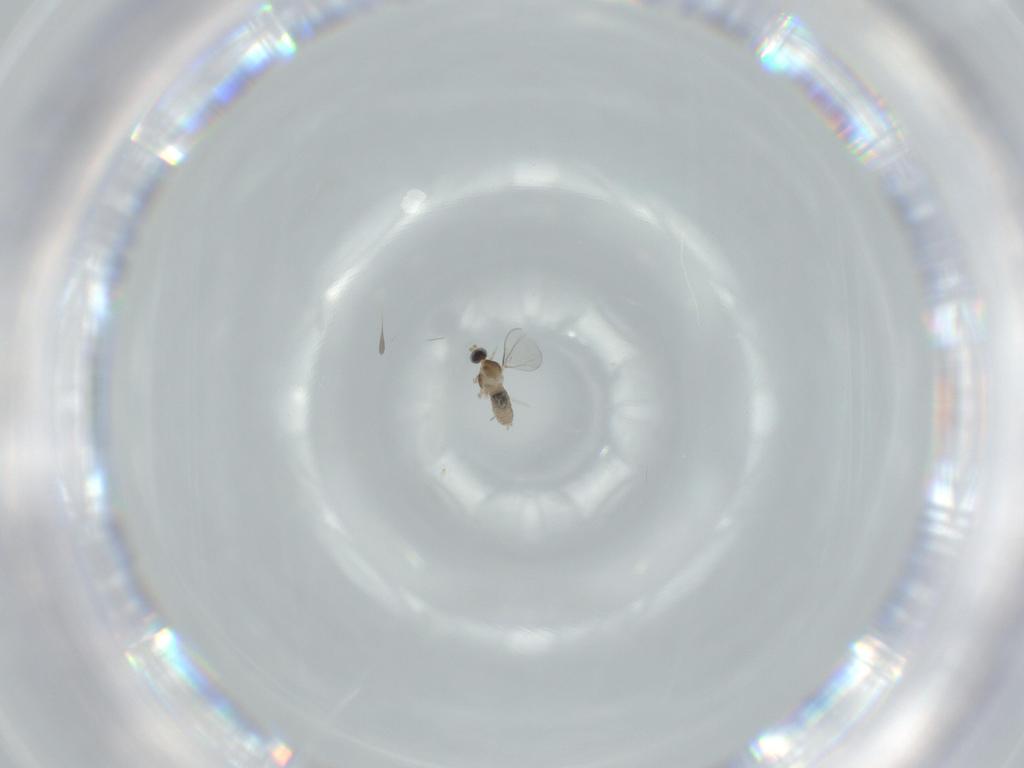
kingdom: Animalia
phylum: Arthropoda
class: Insecta
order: Diptera
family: Cecidomyiidae
